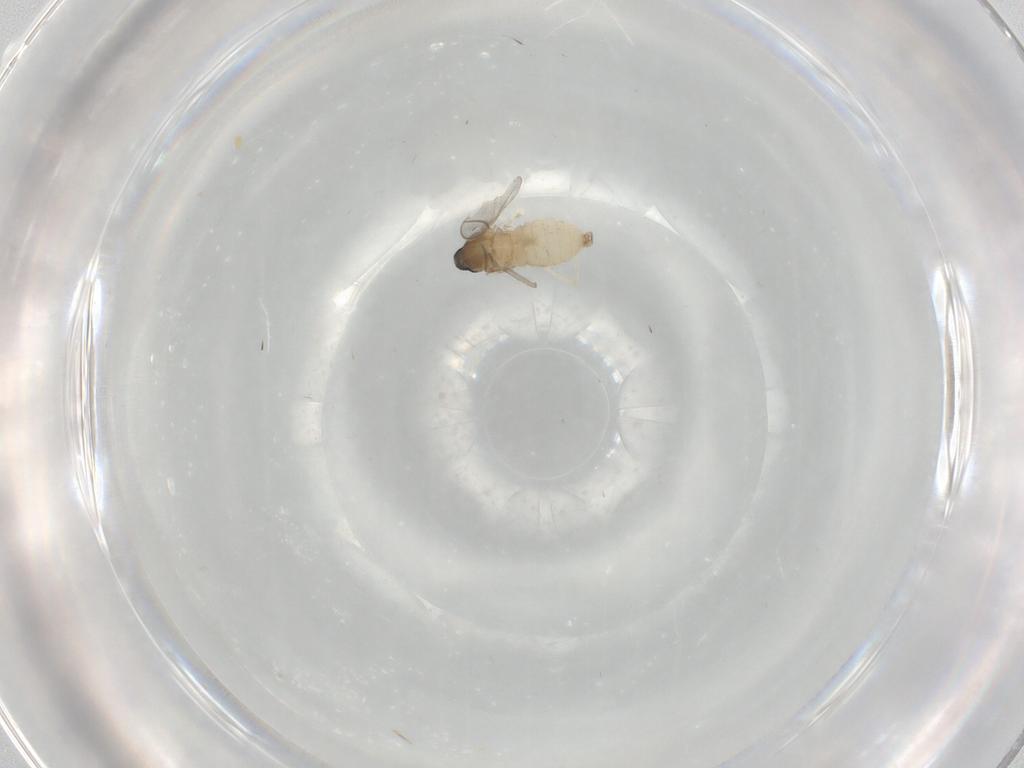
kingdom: Animalia
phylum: Arthropoda
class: Insecta
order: Diptera
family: Cecidomyiidae
